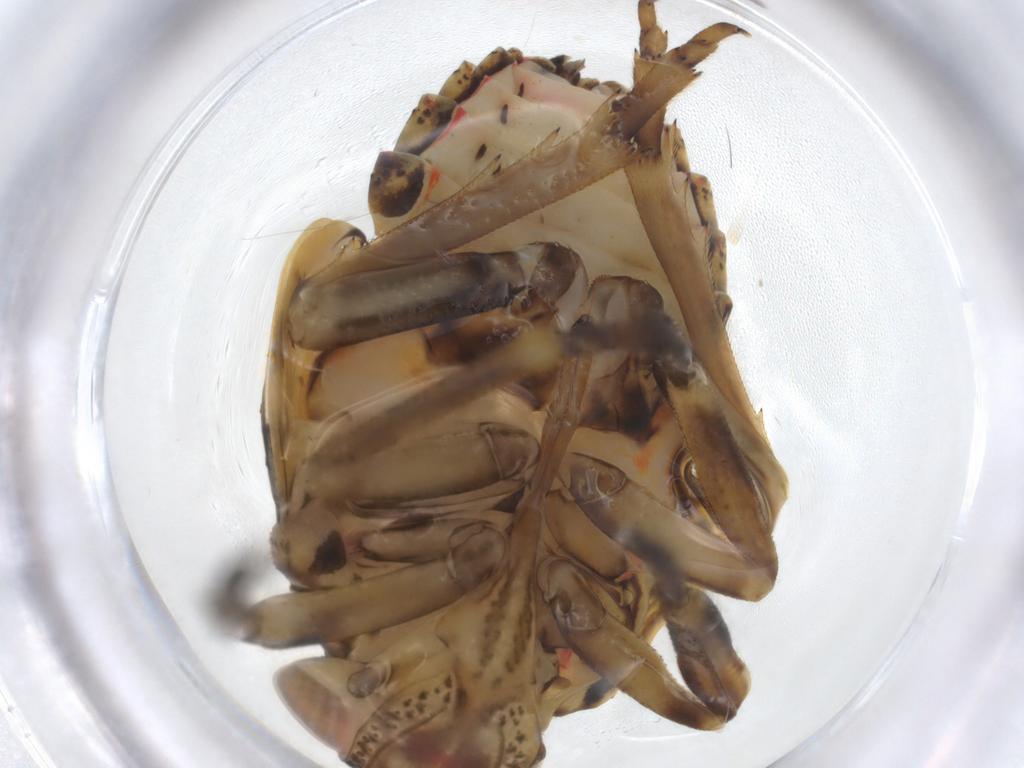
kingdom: Animalia
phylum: Arthropoda
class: Insecta
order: Hemiptera
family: Issidae
